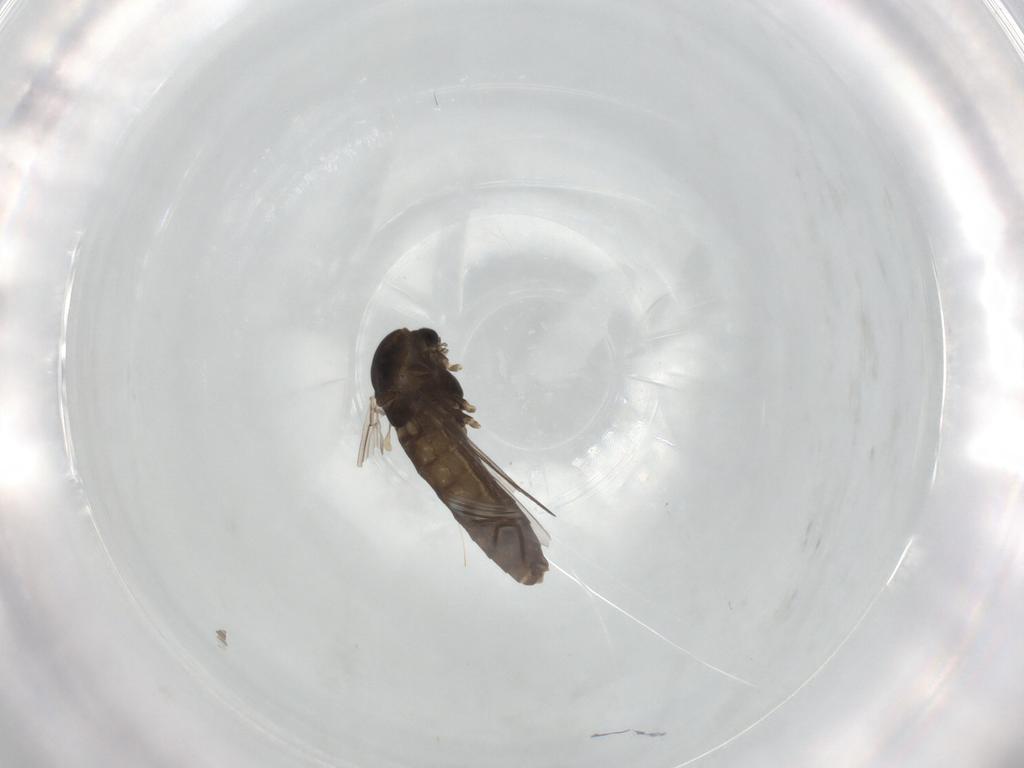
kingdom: Animalia
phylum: Arthropoda
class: Insecta
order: Diptera
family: Chironomidae
